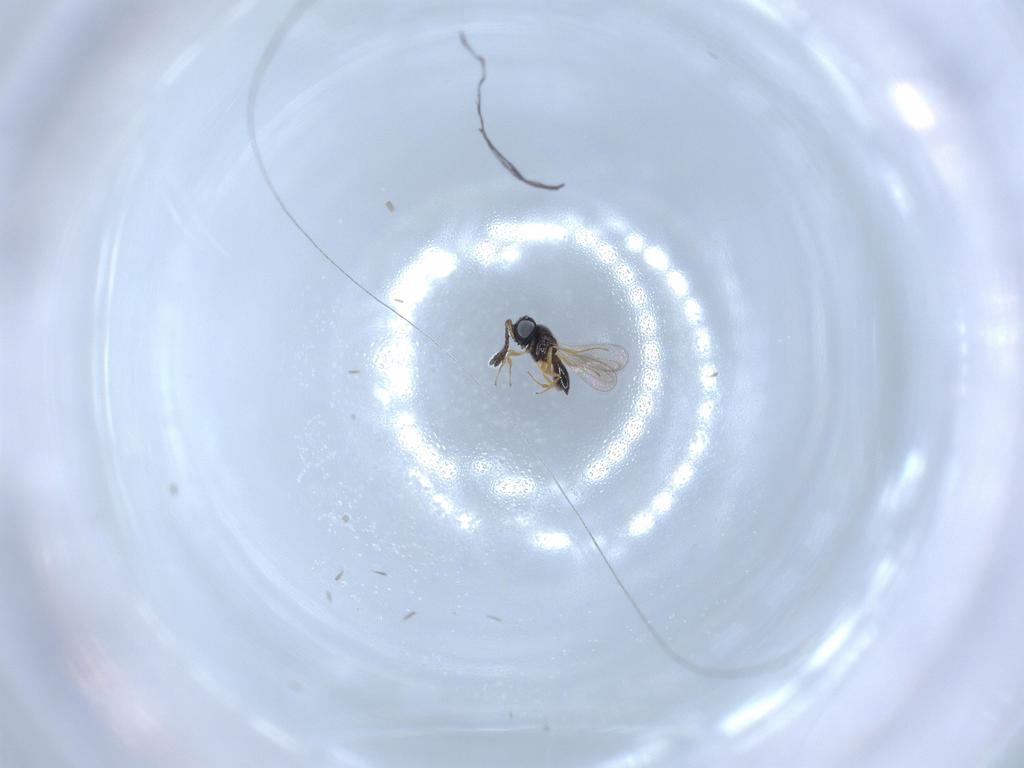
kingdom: Animalia
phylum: Arthropoda
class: Insecta
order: Hymenoptera
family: Scelionidae
